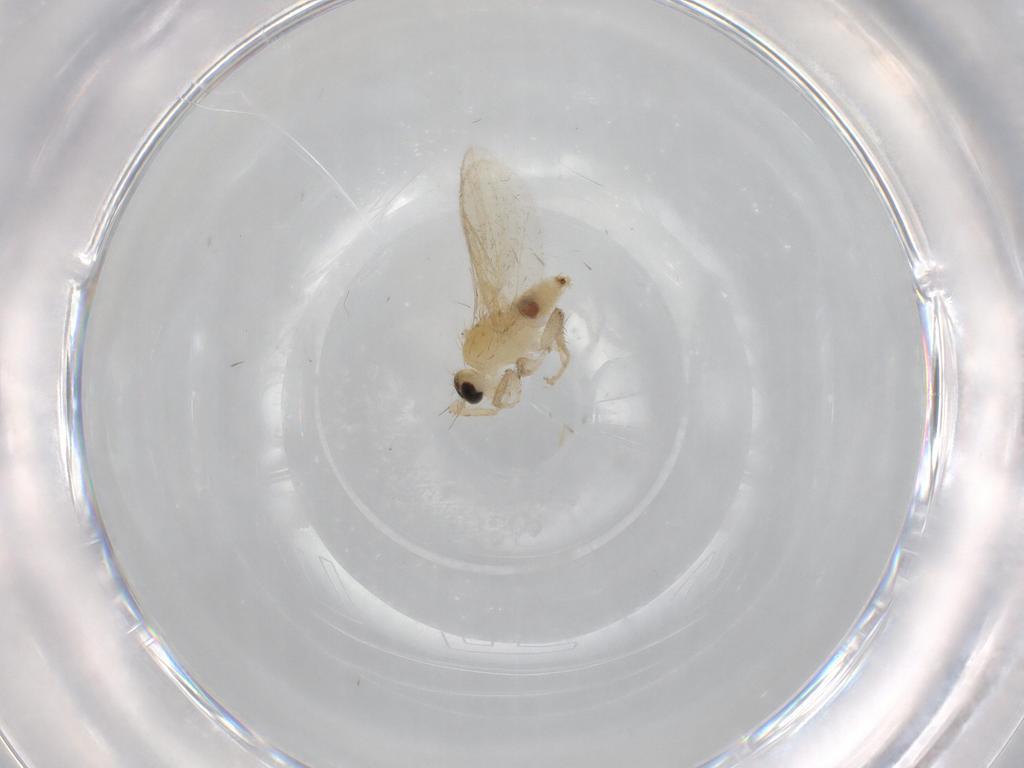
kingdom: Animalia
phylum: Arthropoda
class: Insecta
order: Diptera
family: Hybotidae
